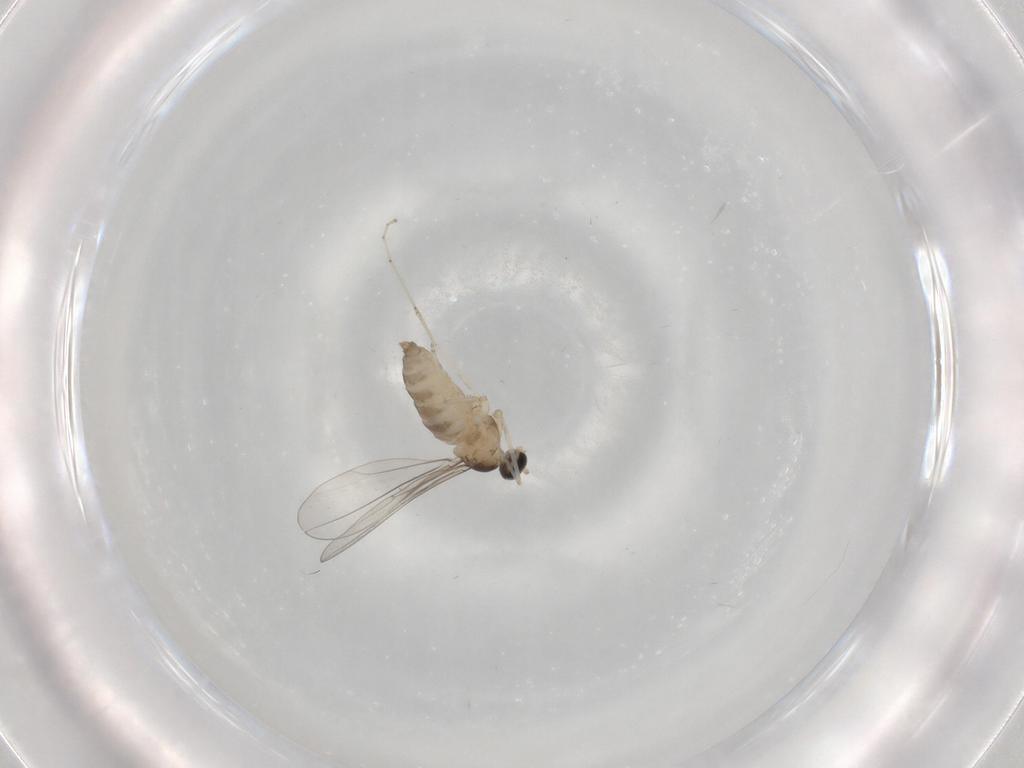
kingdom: Animalia
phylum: Arthropoda
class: Insecta
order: Diptera
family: Cecidomyiidae
